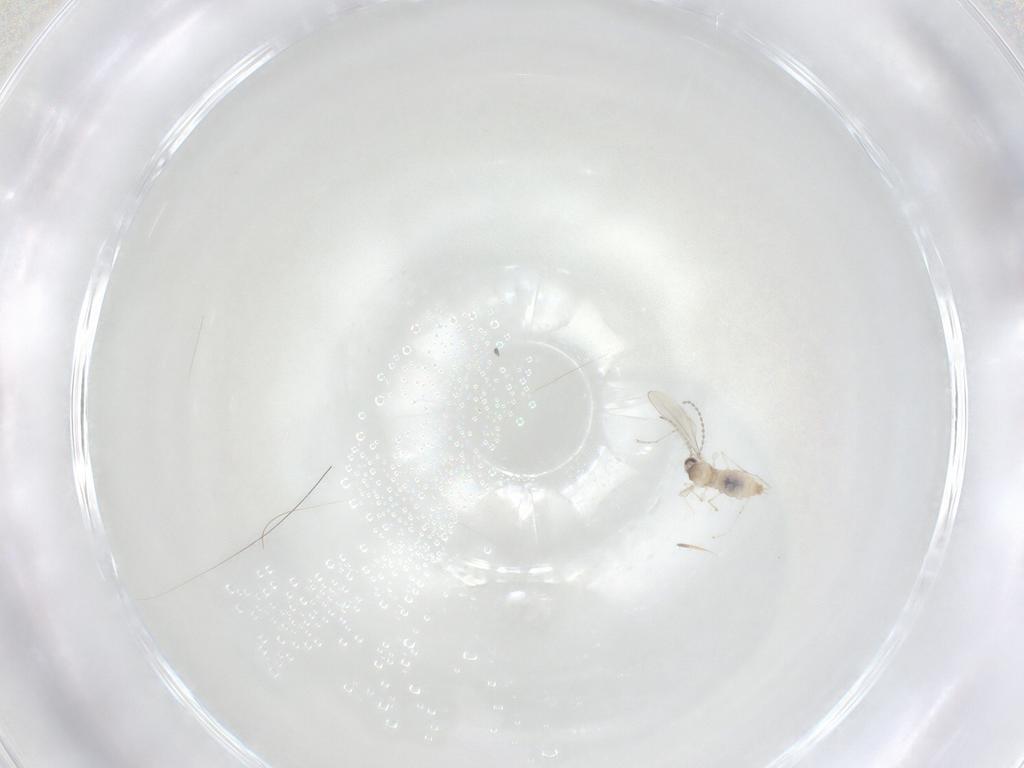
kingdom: Animalia
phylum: Arthropoda
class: Insecta
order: Diptera
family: Cecidomyiidae
